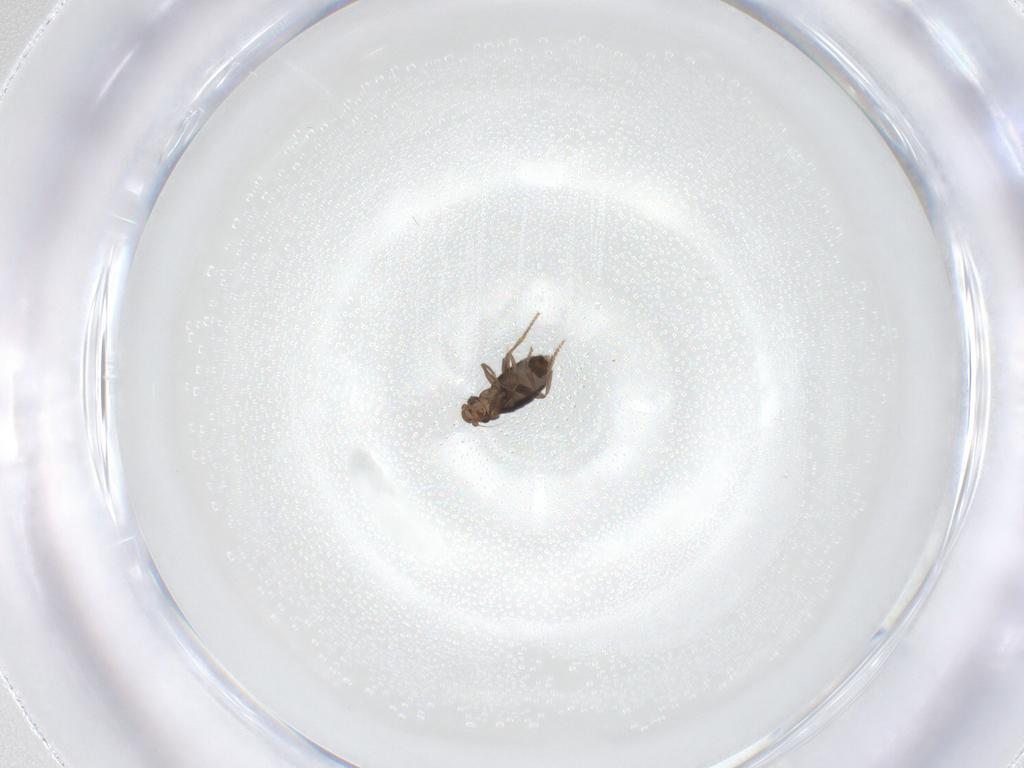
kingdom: Animalia
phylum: Arthropoda
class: Insecta
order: Diptera
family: Phoridae
